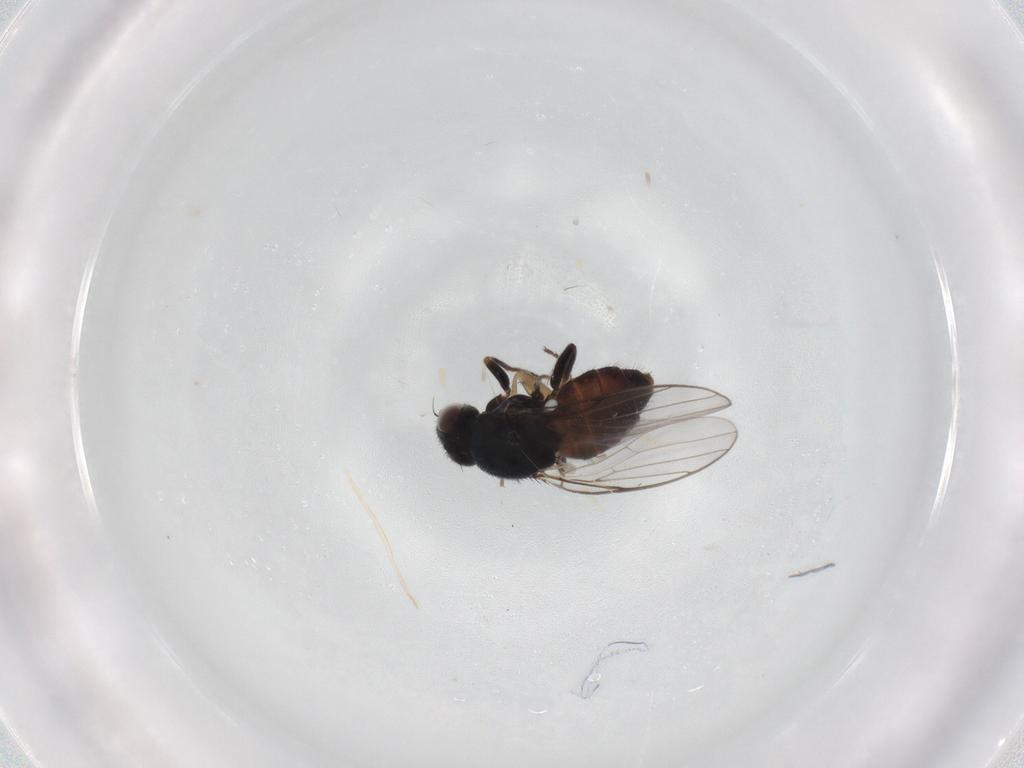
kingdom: Animalia
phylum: Arthropoda
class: Insecta
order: Diptera
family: Chloropidae
